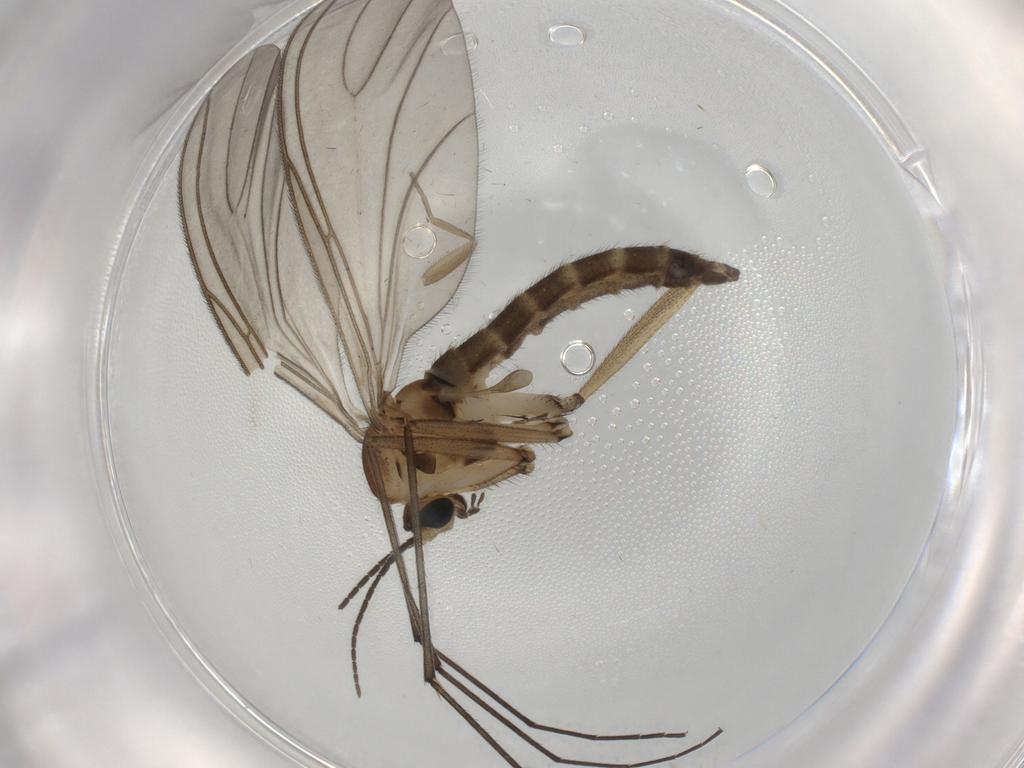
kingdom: Animalia
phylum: Arthropoda
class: Insecta
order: Diptera
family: Sciaridae
